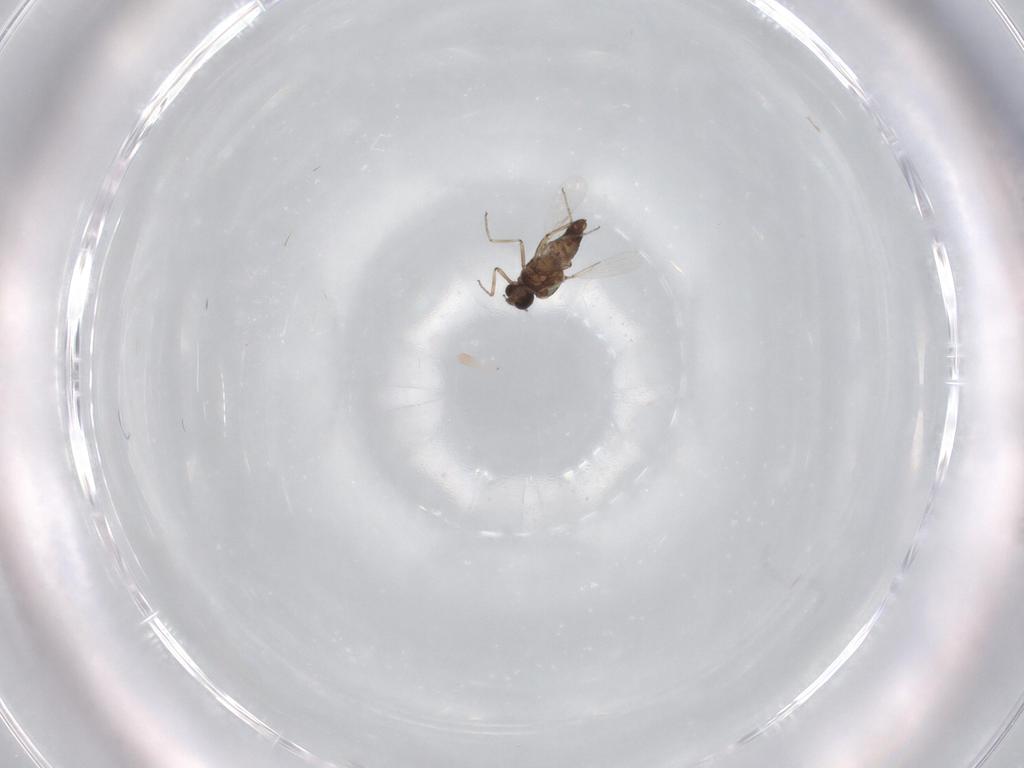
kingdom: Animalia
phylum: Arthropoda
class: Insecta
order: Diptera
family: Ceratopogonidae
